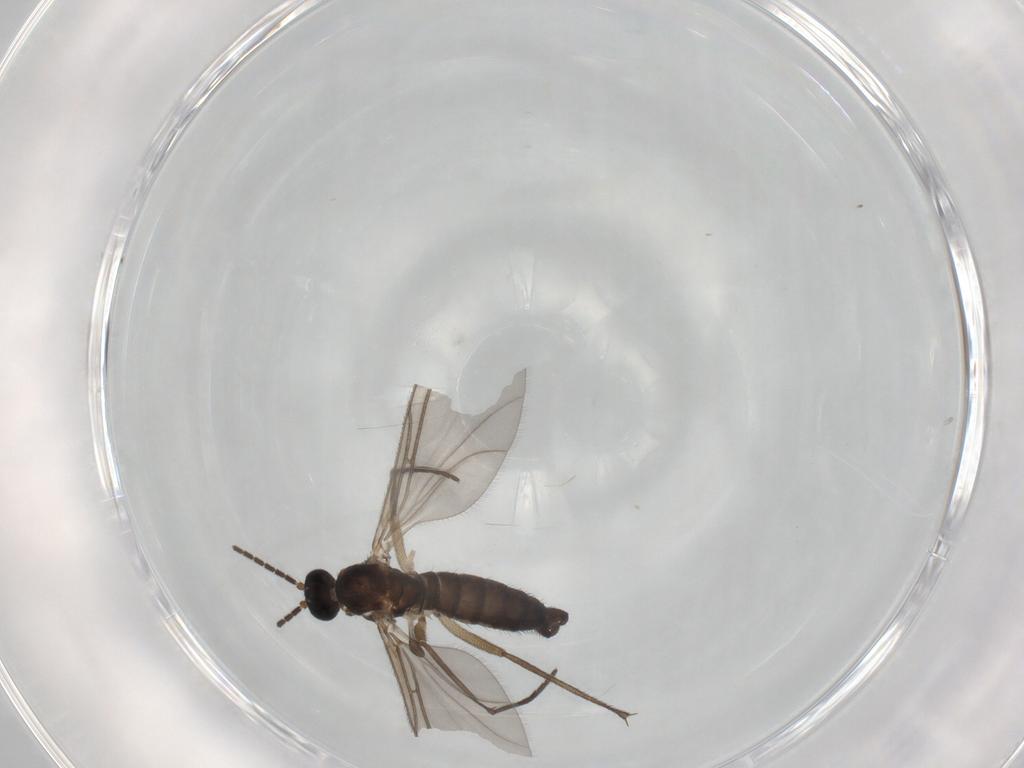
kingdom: Animalia
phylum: Arthropoda
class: Insecta
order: Diptera
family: Sciaridae
